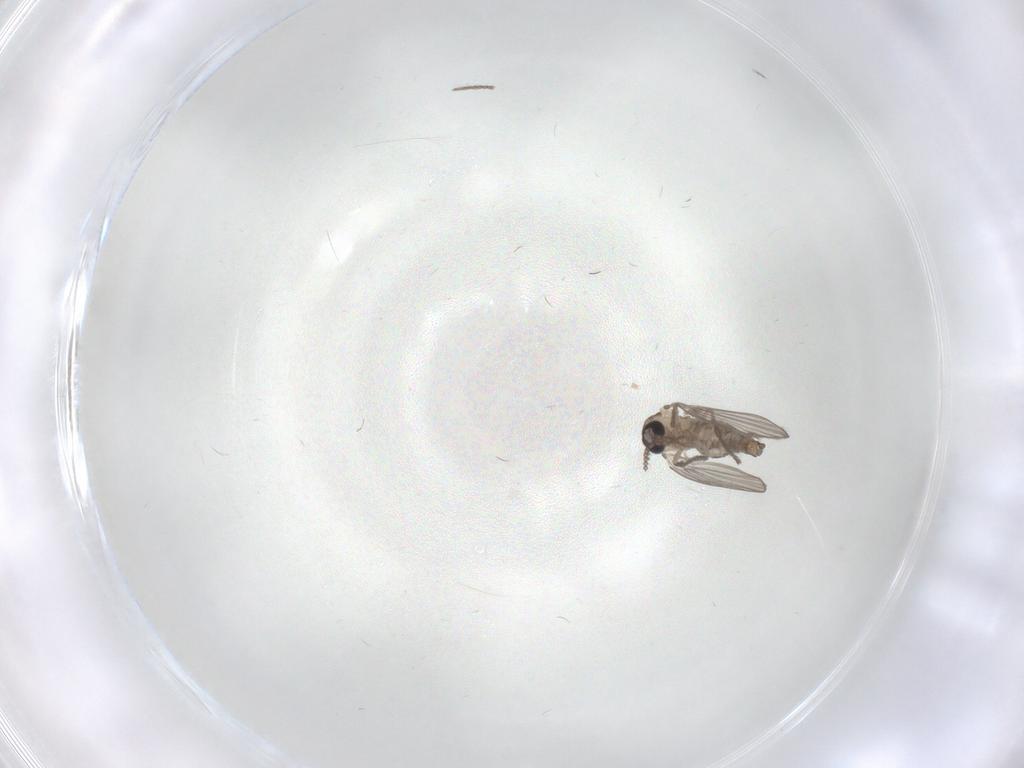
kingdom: Animalia
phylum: Arthropoda
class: Insecta
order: Diptera
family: Psychodidae
